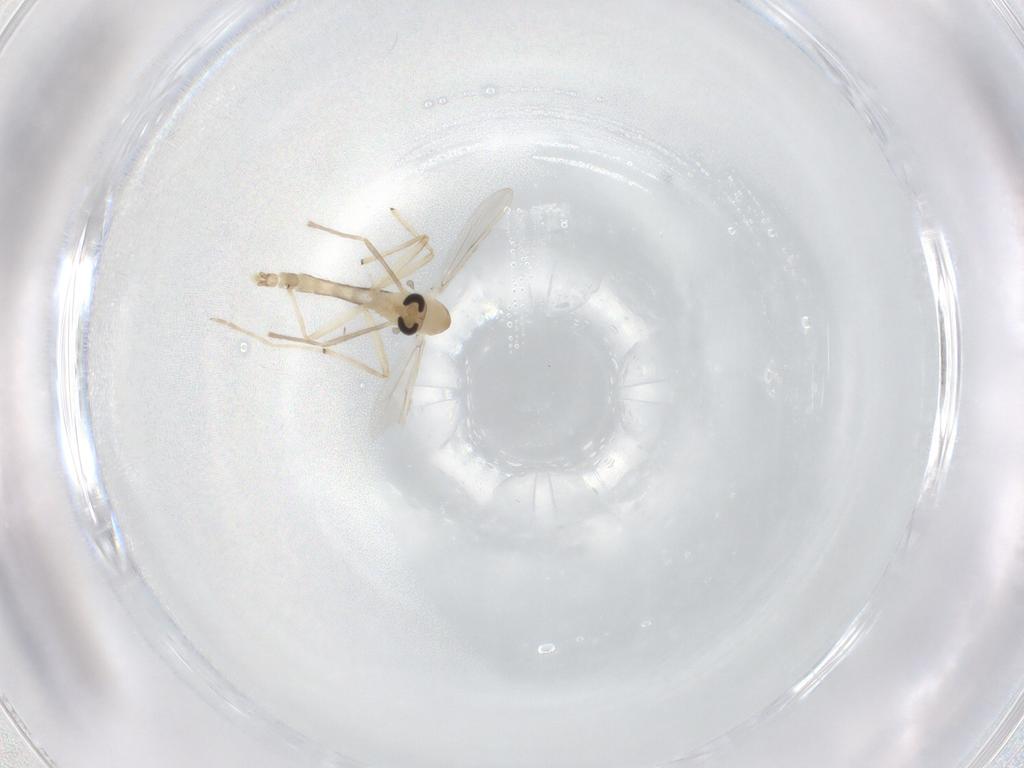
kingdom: Animalia
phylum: Arthropoda
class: Insecta
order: Diptera
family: Chironomidae
